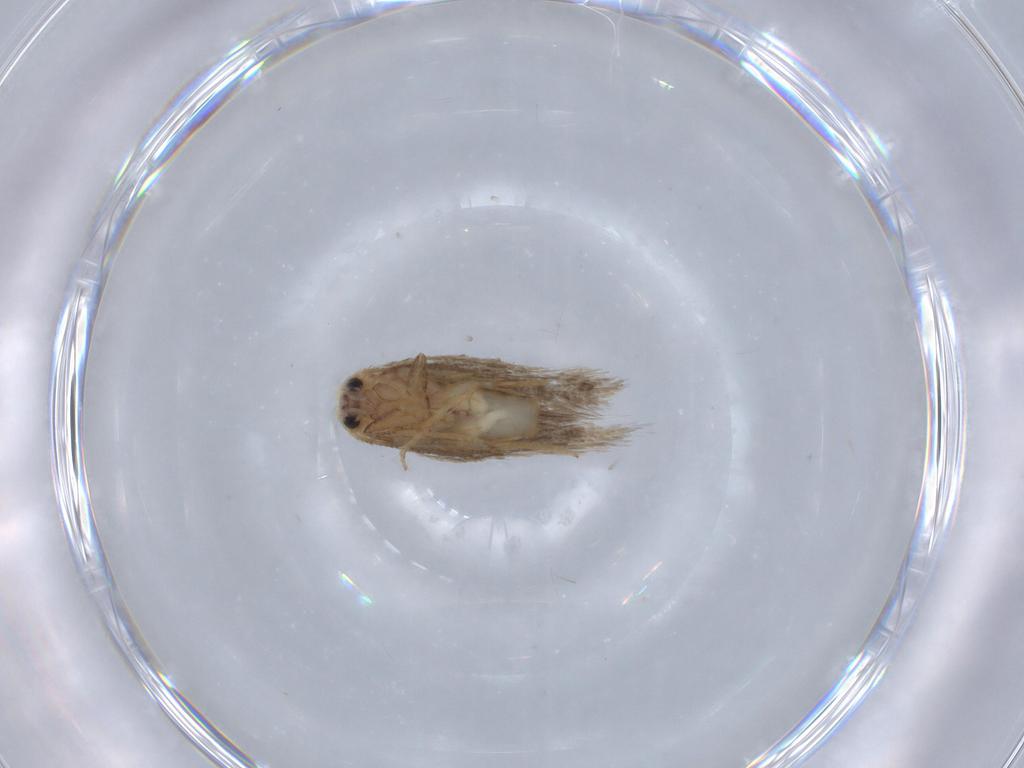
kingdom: Animalia
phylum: Arthropoda
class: Insecta
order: Lepidoptera
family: Nepticulidae
